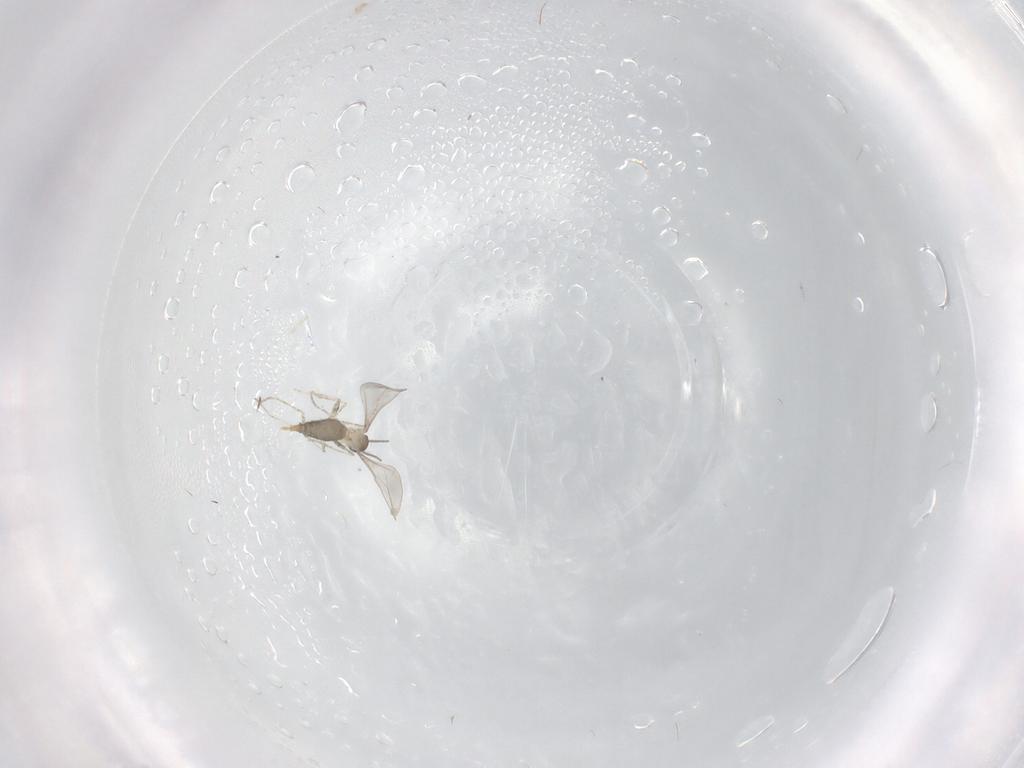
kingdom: Animalia
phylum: Arthropoda
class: Insecta
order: Diptera
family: Cecidomyiidae
